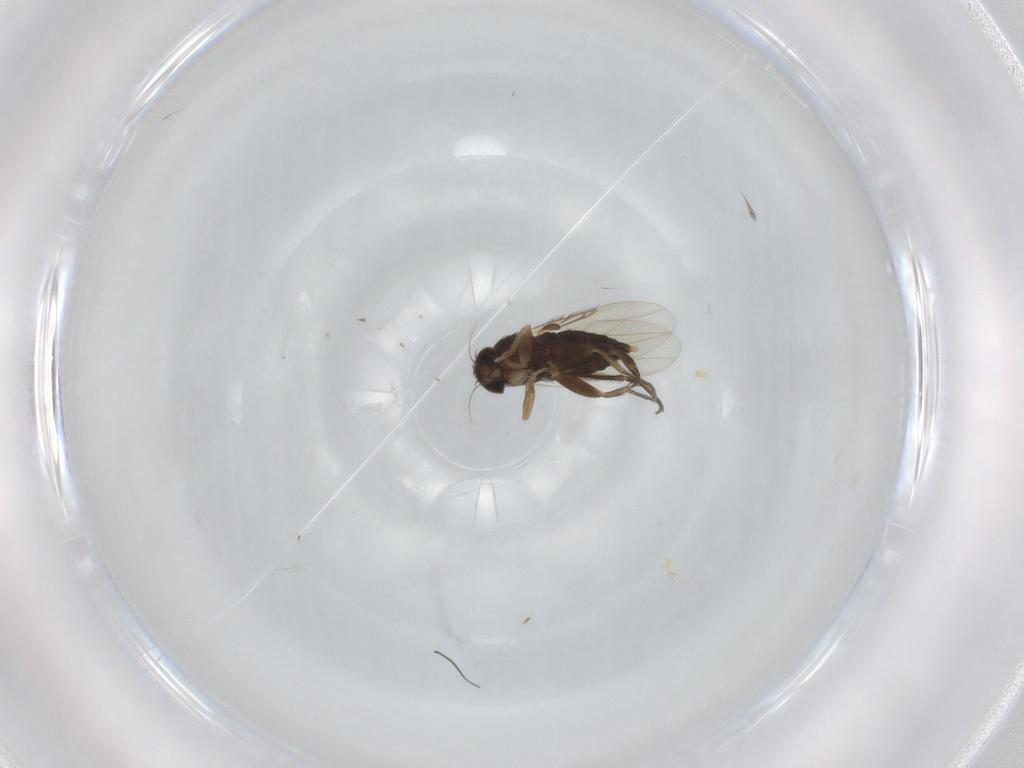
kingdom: Animalia
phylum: Arthropoda
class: Insecta
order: Diptera
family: Phoridae
